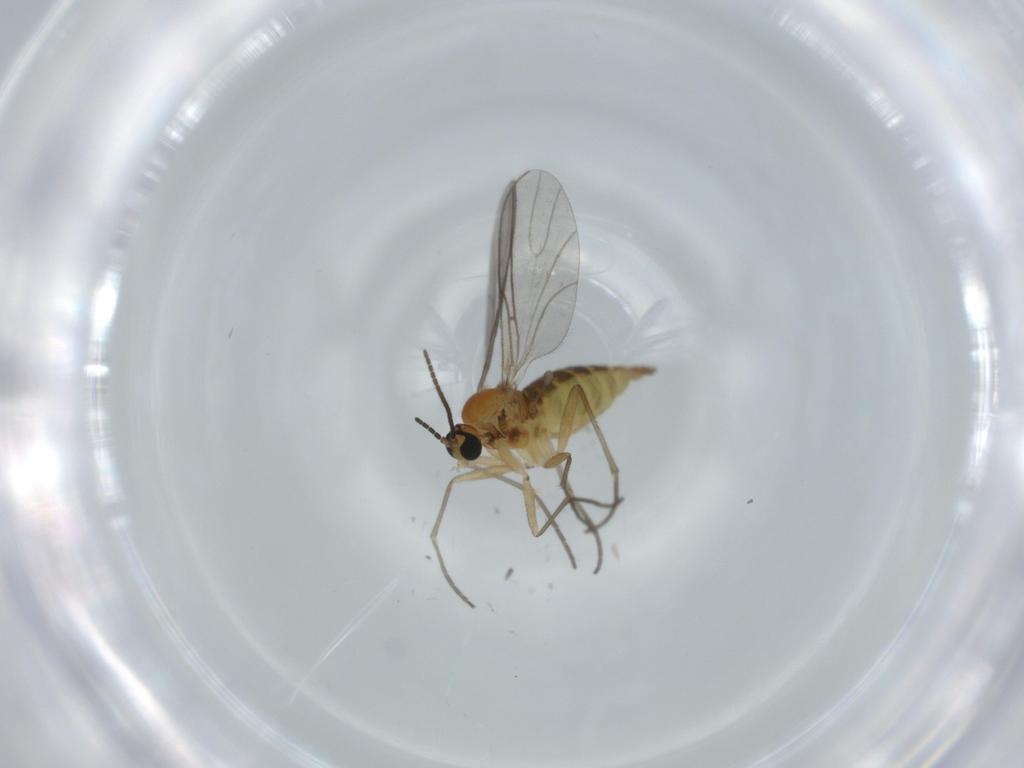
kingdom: Animalia
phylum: Arthropoda
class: Insecta
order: Diptera
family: Sciaridae
